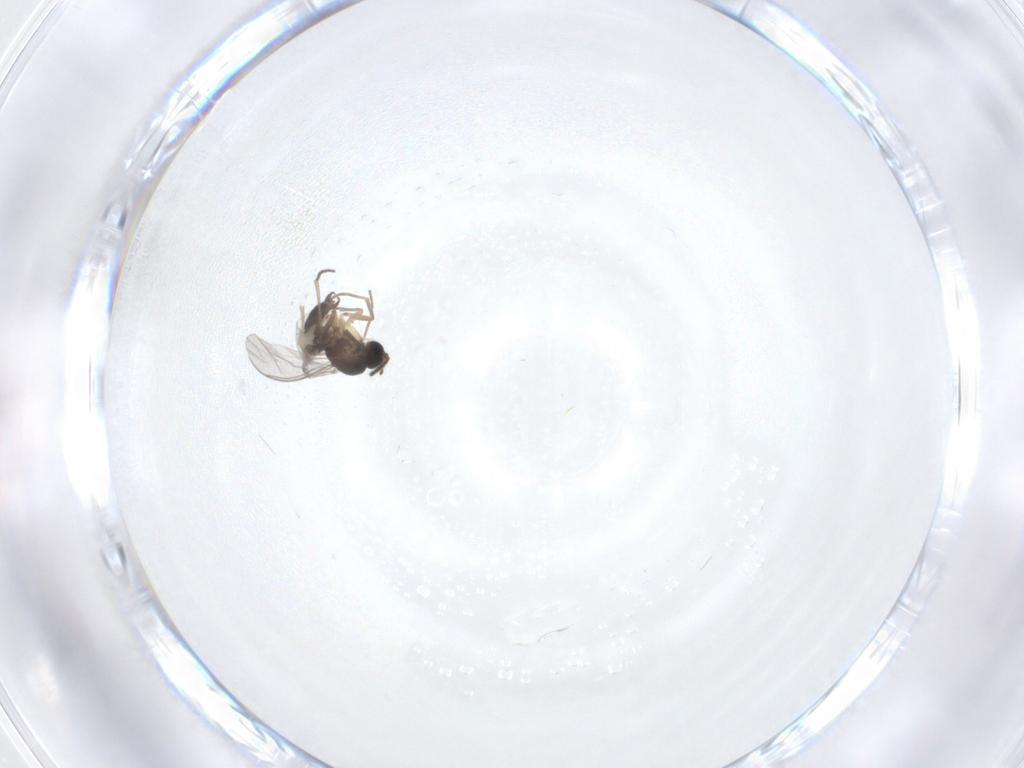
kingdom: Animalia
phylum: Arthropoda
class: Insecta
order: Diptera
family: Sciaridae
